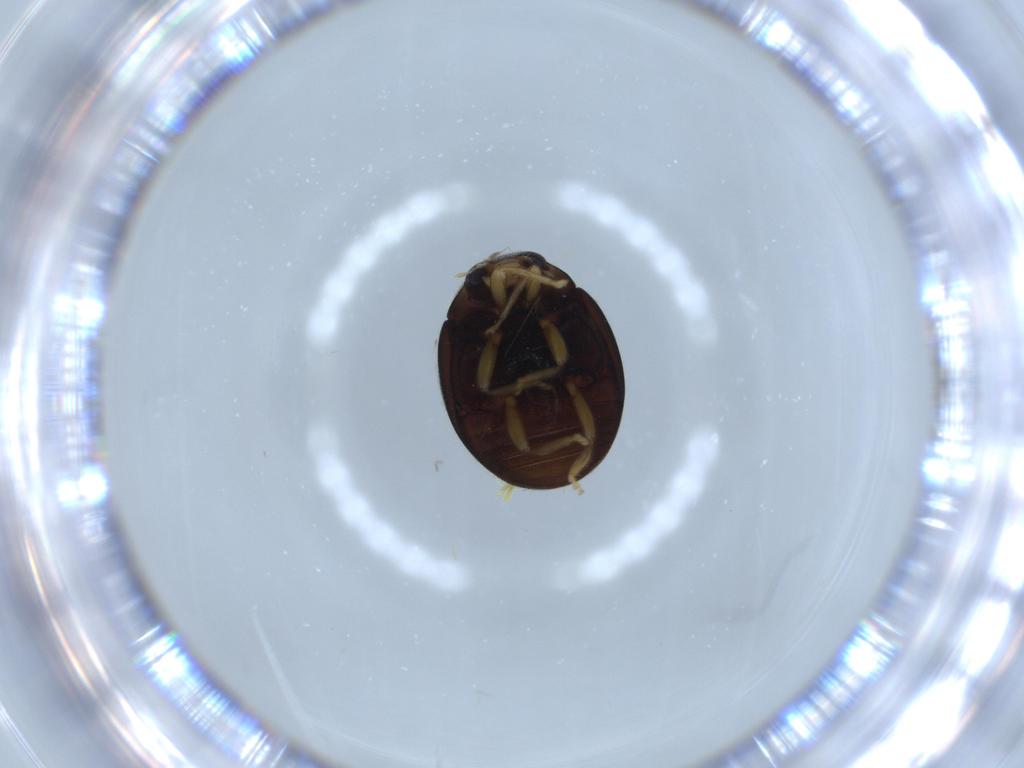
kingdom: Animalia
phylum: Arthropoda
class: Insecta
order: Coleoptera
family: Coccinellidae
